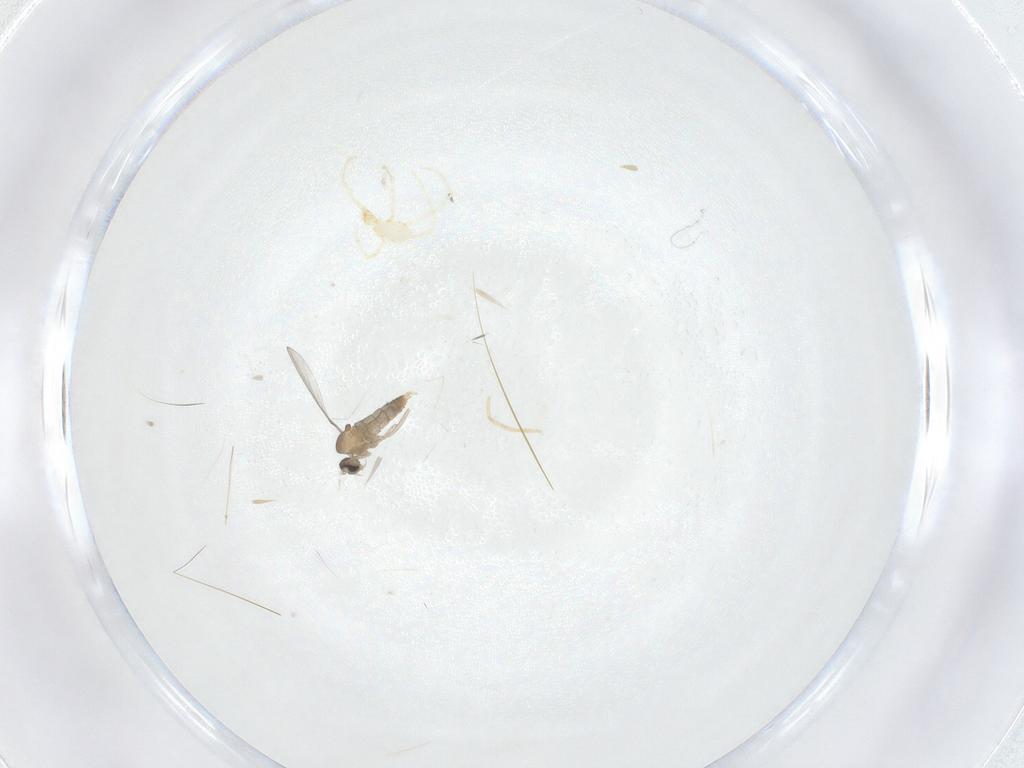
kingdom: Animalia
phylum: Arthropoda
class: Insecta
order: Diptera
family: Cecidomyiidae
